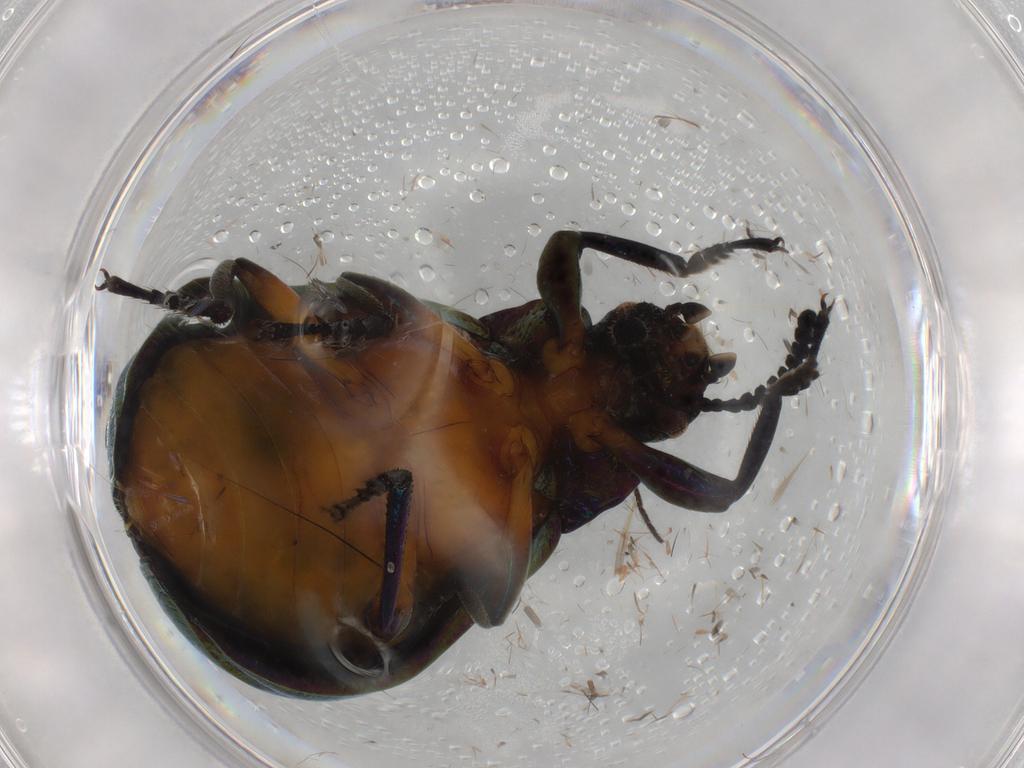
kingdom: Animalia
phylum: Arthropoda
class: Insecta
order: Coleoptera
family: Tenebrionidae
